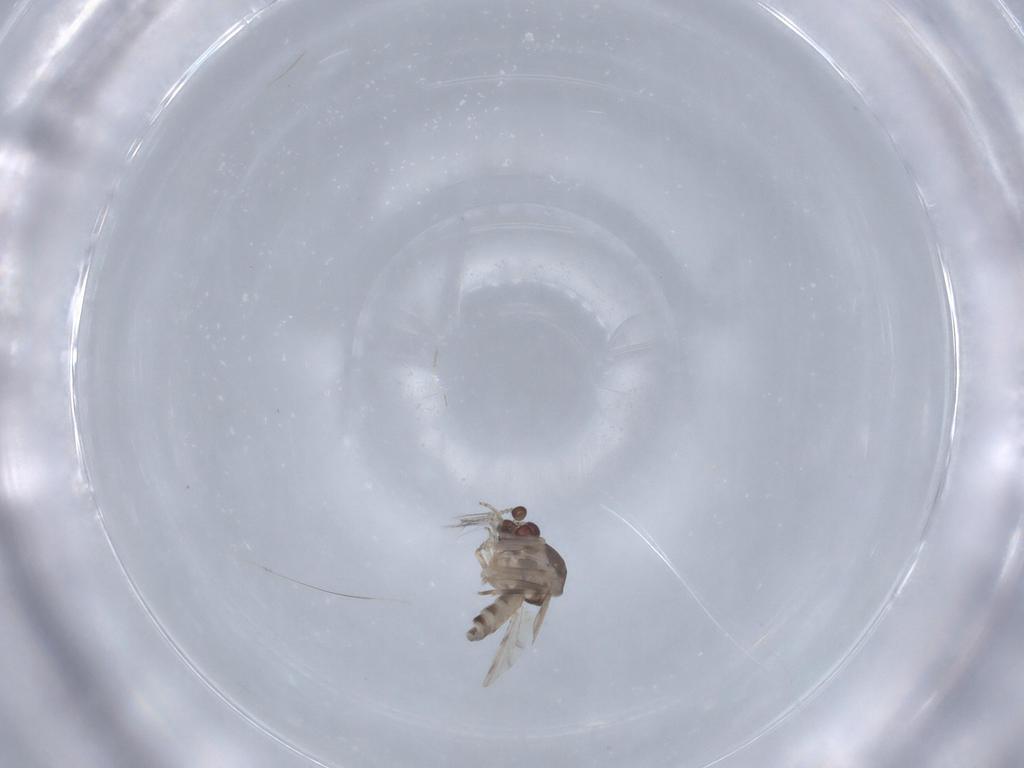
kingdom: Animalia
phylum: Arthropoda
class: Insecta
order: Diptera
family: Ceratopogonidae
